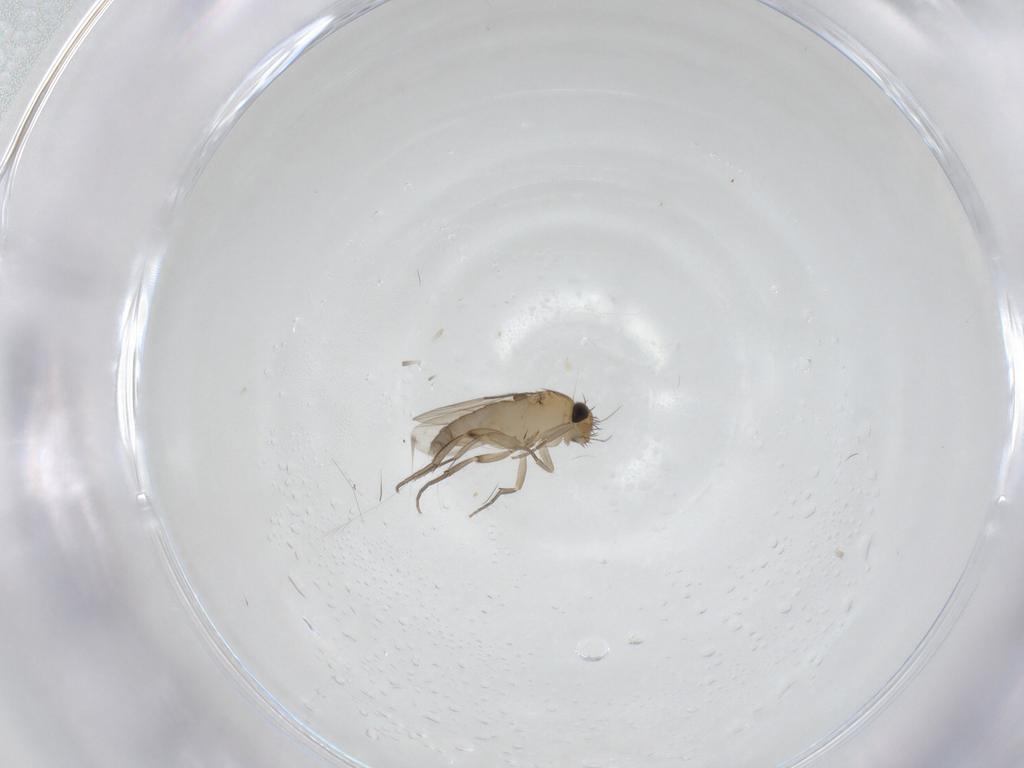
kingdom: Animalia
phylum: Arthropoda
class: Insecta
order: Diptera
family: Phoridae
